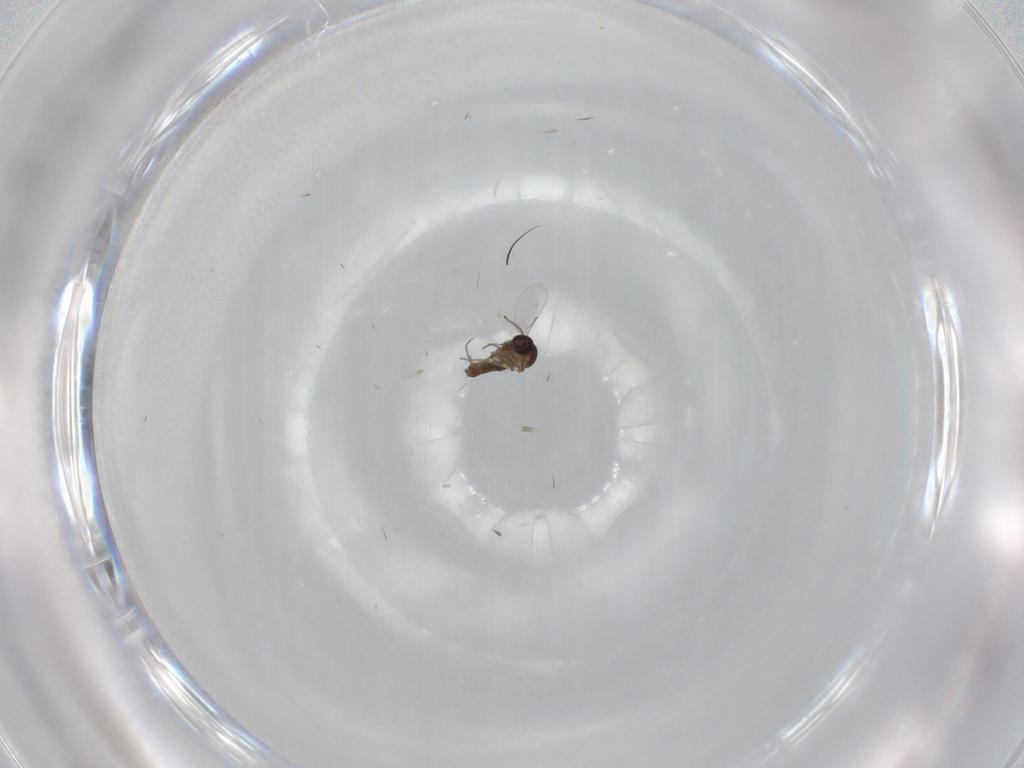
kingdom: Animalia
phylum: Arthropoda
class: Insecta
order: Diptera
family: Ceratopogonidae
